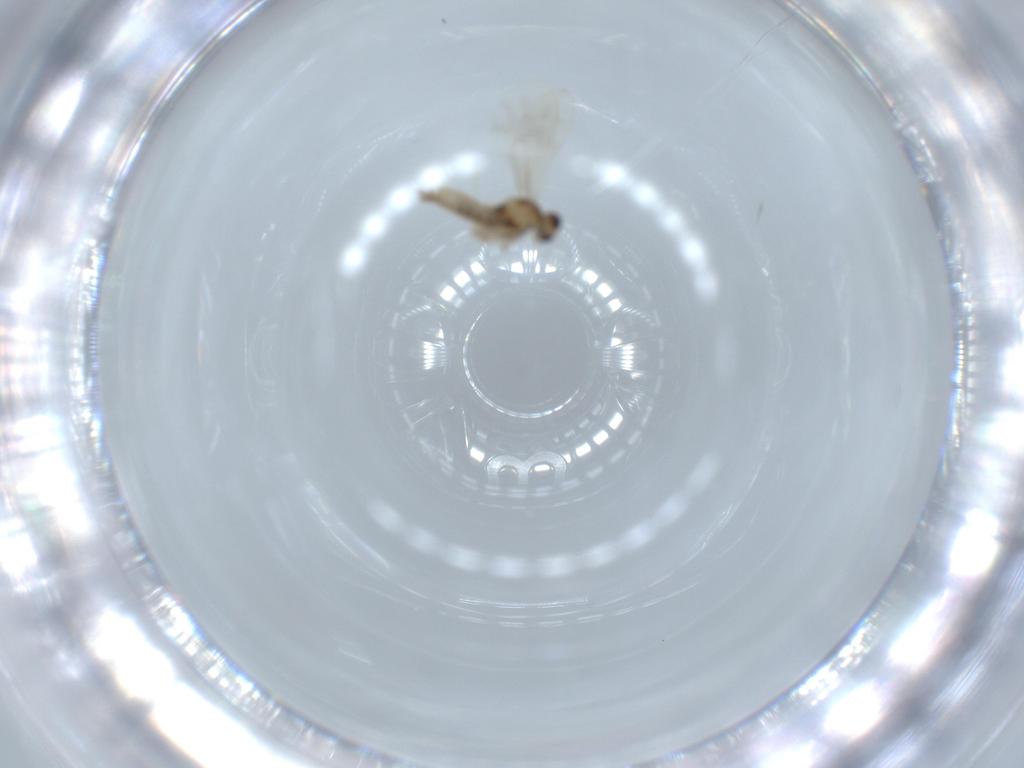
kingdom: Animalia
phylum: Arthropoda
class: Insecta
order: Diptera
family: Cecidomyiidae
